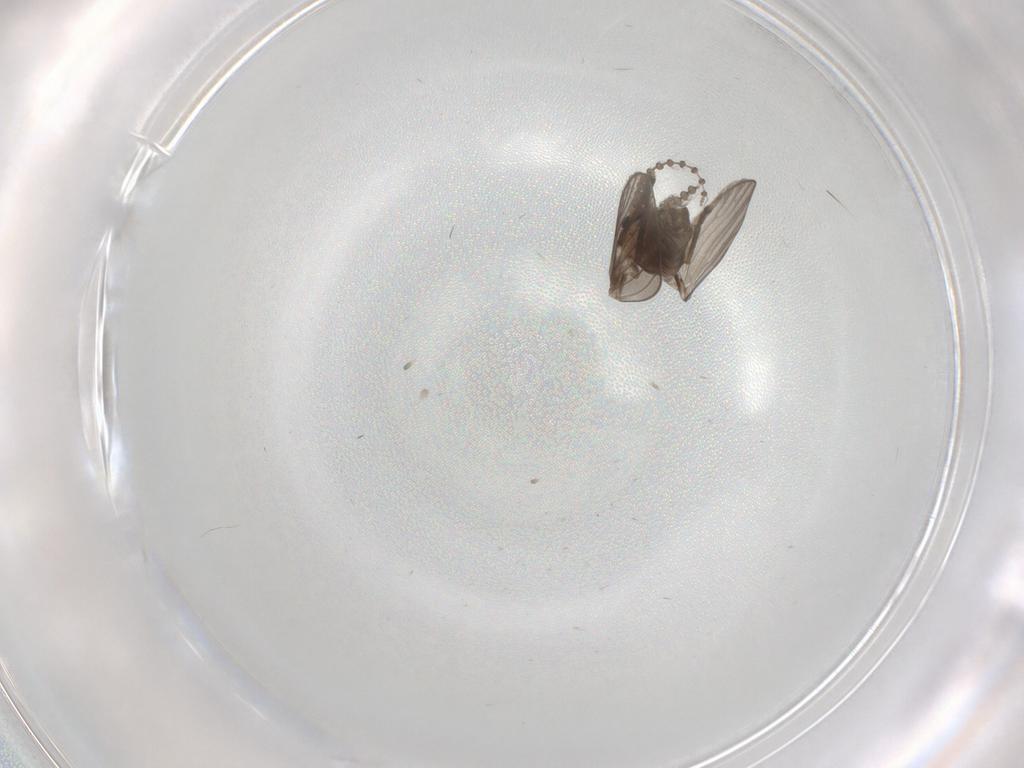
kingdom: Animalia
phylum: Arthropoda
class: Insecta
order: Diptera
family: Psychodidae
